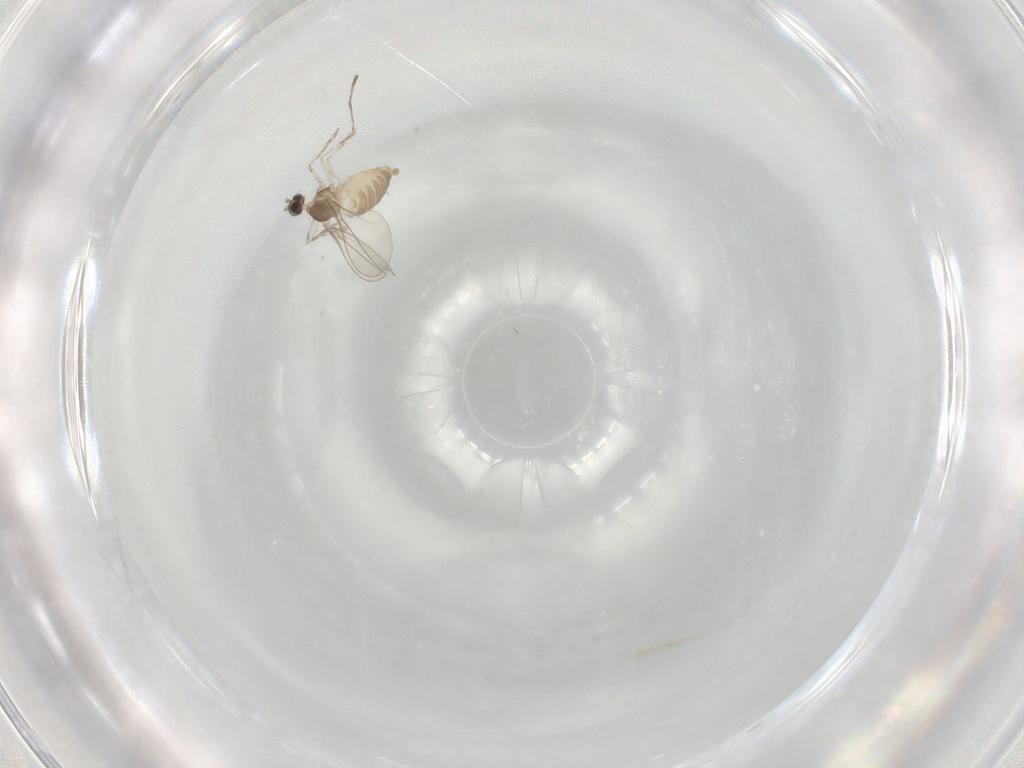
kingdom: Animalia
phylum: Arthropoda
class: Insecta
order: Diptera
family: Cecidomyiidae
